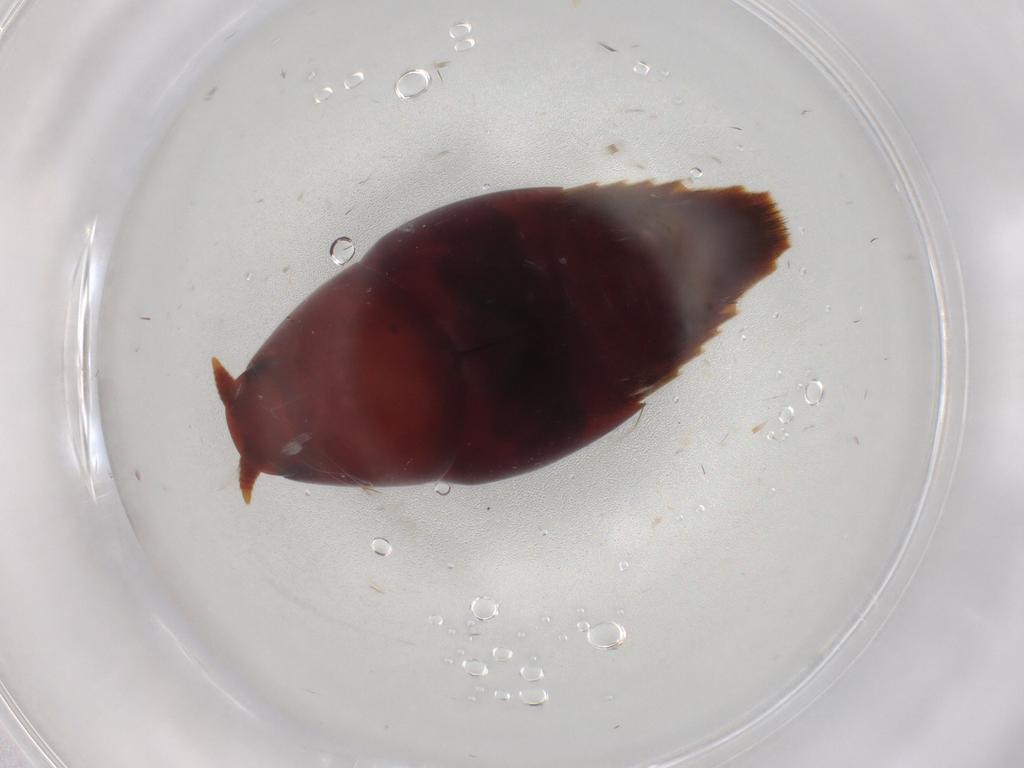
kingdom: Animalia
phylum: Arthropoda
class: Insecta
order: Coleoptera
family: Staphylinidae
